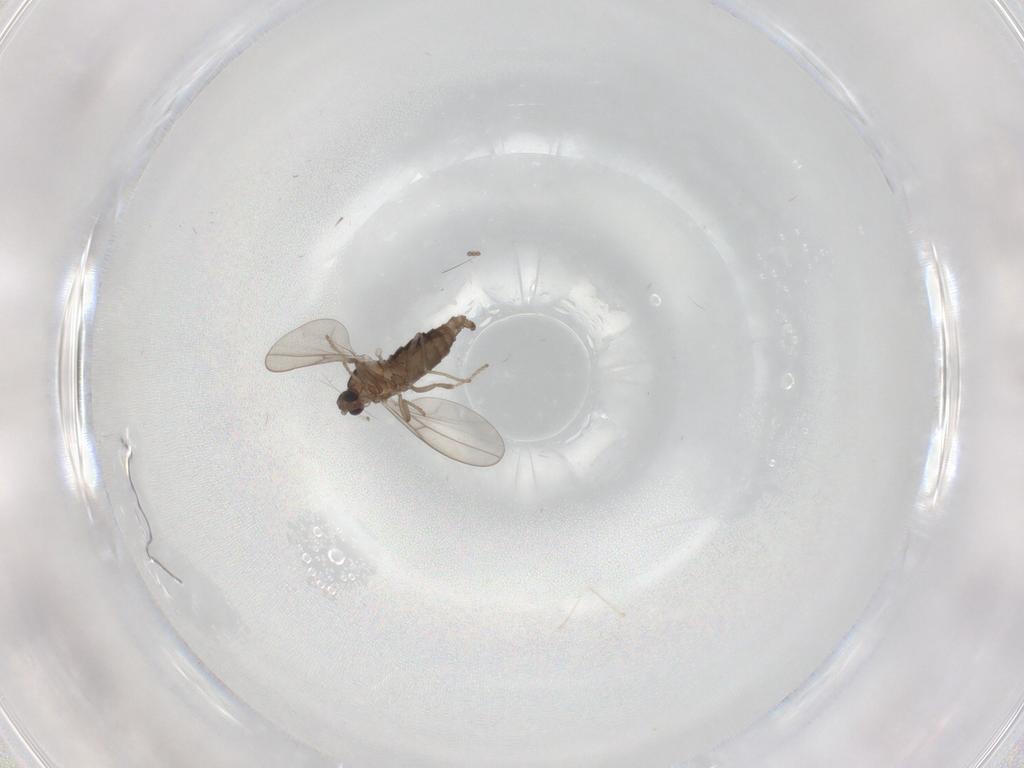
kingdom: Animalia
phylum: Arthropoda
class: Insecta
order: Diptera
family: Cecidomyiidae
